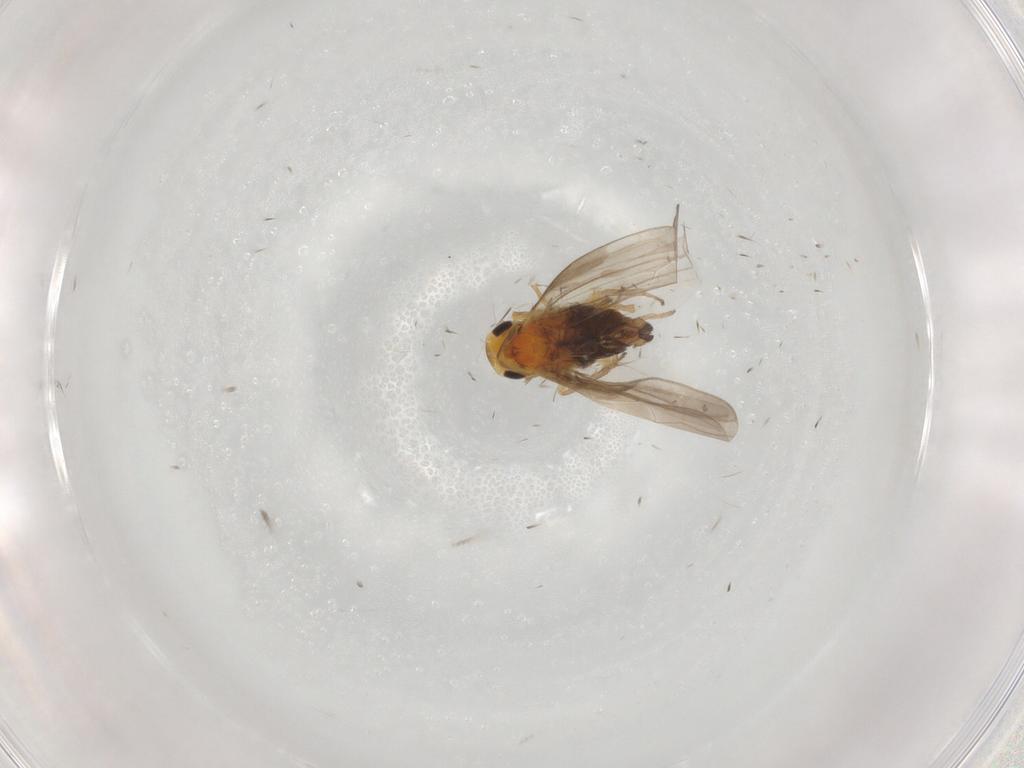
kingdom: Animalia
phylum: Arthropoda
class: Insecta
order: Hemiptera
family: Cicadellidae
